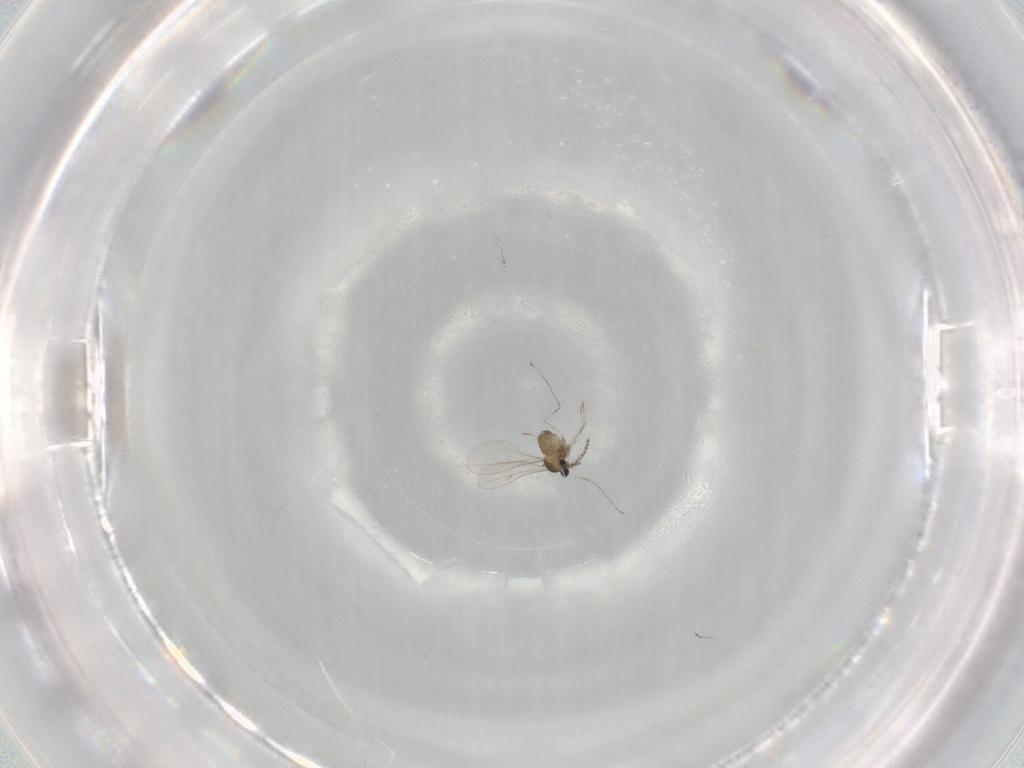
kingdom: Animalia
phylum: Arthropoda
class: Insecta
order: Diptera
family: Cecidomyiidae
